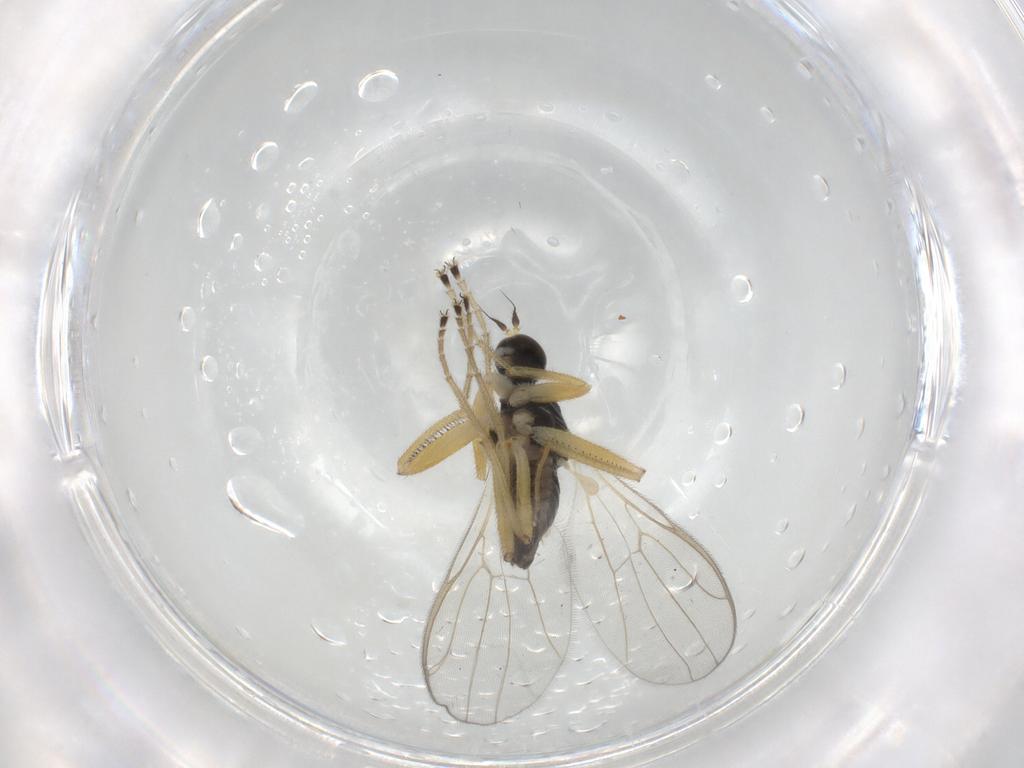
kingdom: Animalia
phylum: Arthropoda
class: Insecta
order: Diptera
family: Hybotidae
